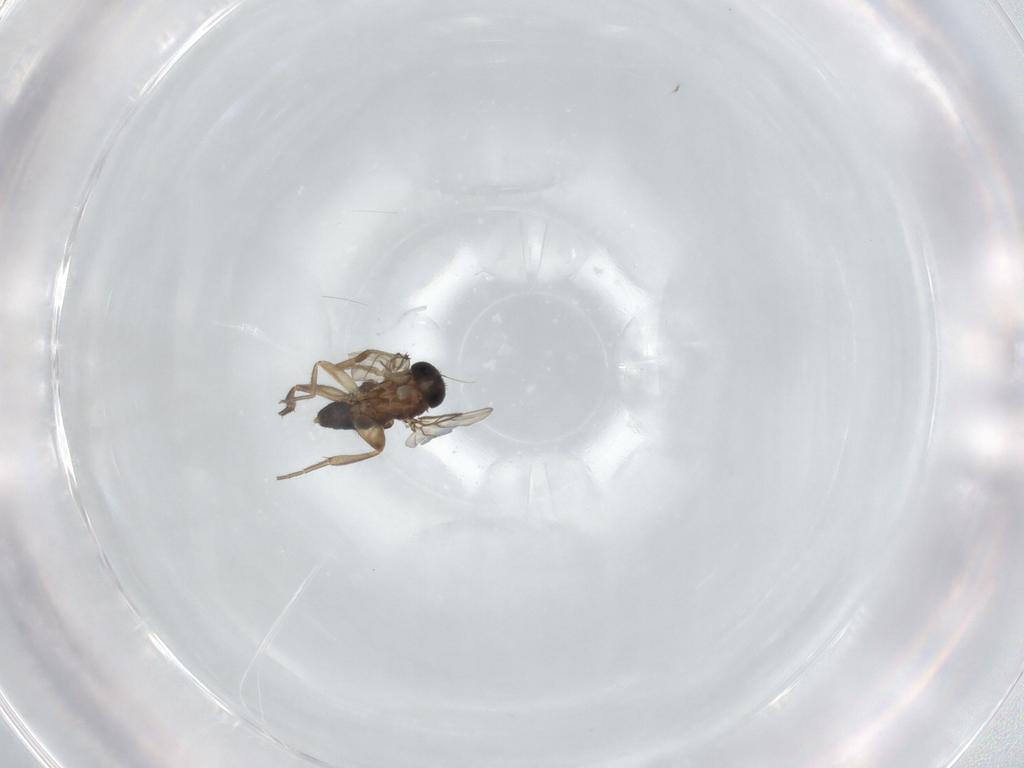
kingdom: Animalia
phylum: Arthropoda
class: Insecta
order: Diptera
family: Phoridae
